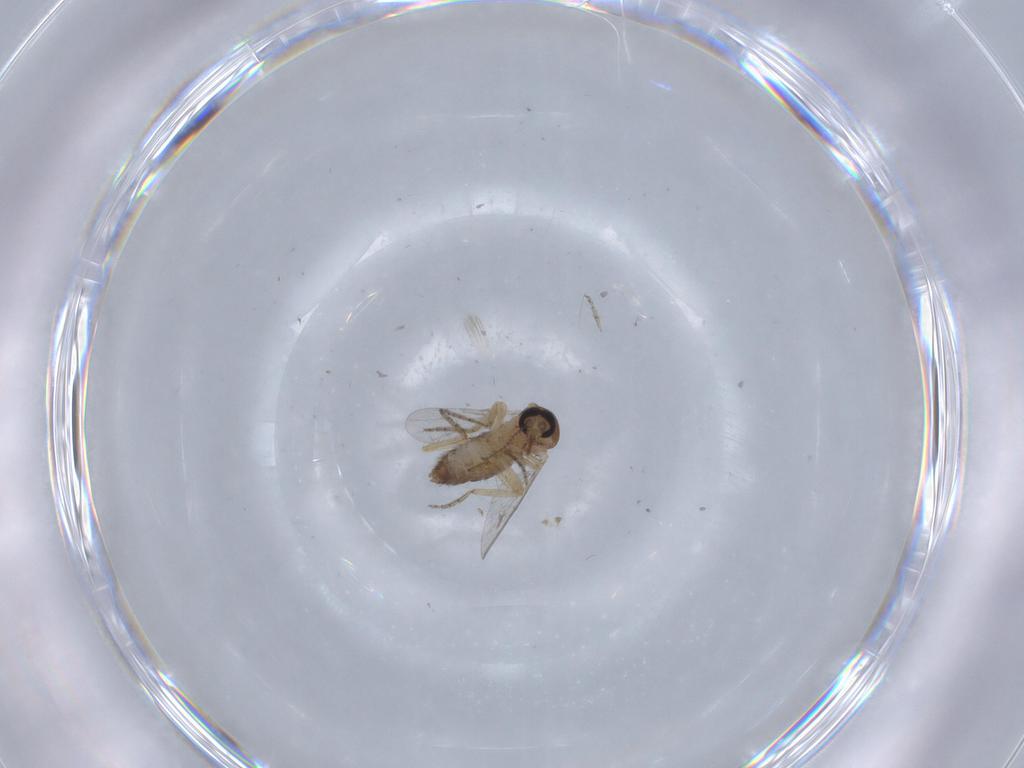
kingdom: Animalia
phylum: Arthropoda
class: Insecta
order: Diptera
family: Ceratopogonidae
